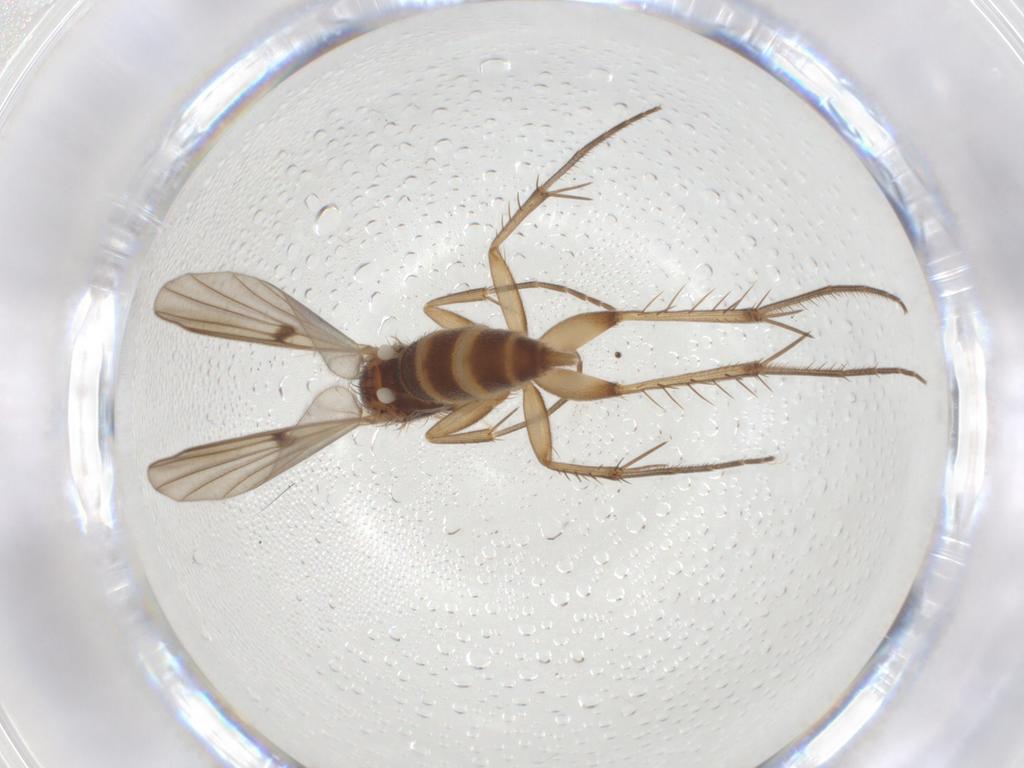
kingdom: Animalia
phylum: Arthropoda
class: Insecta
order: Diptera
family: Mycetophilidae
